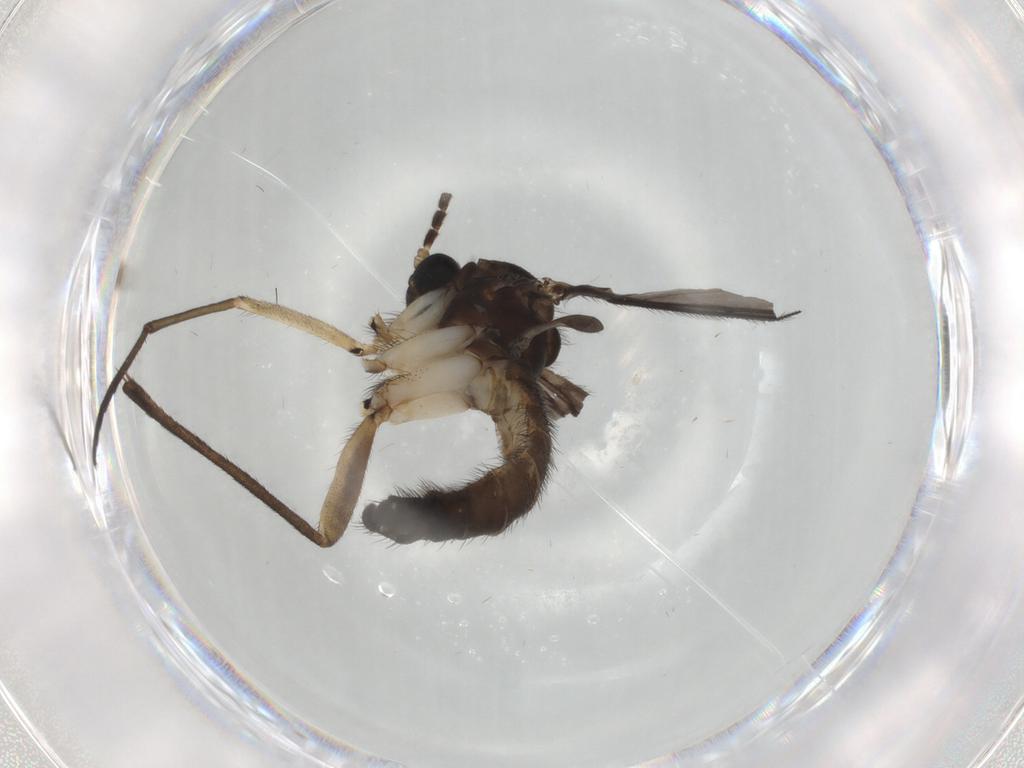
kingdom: Animalia
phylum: Arthropoda
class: Insecta
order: Diptera
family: Sciaridae
